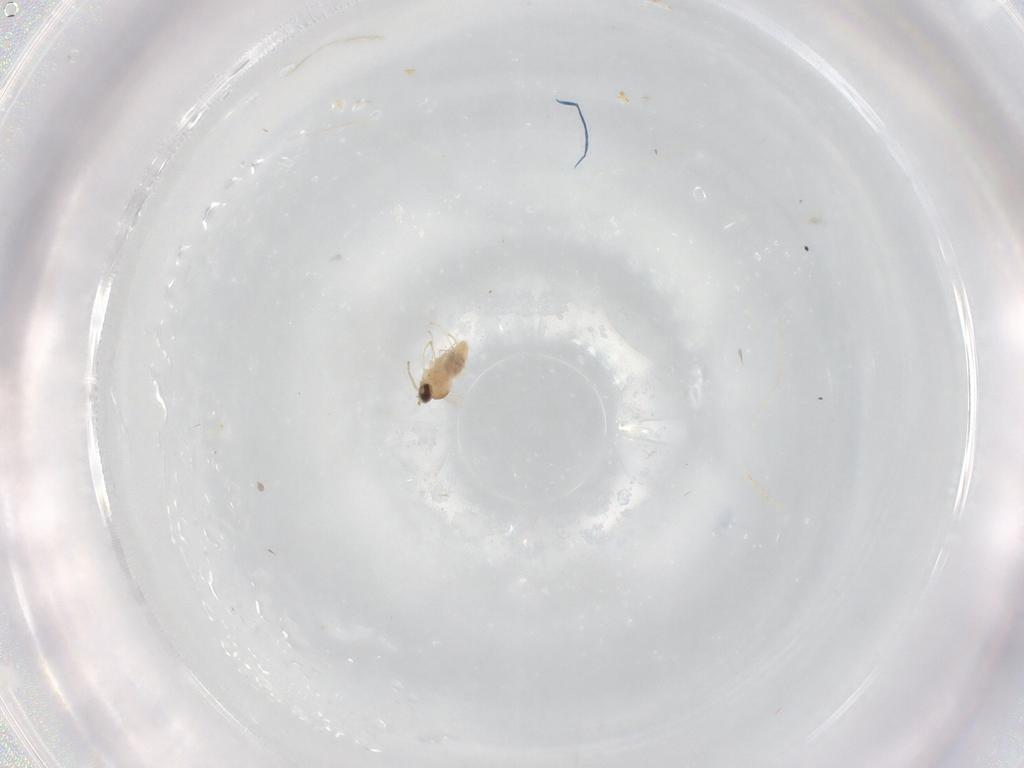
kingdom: Animalia
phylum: Arthropoda
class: Insecta
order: Diptera
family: Cecidomyiidae
